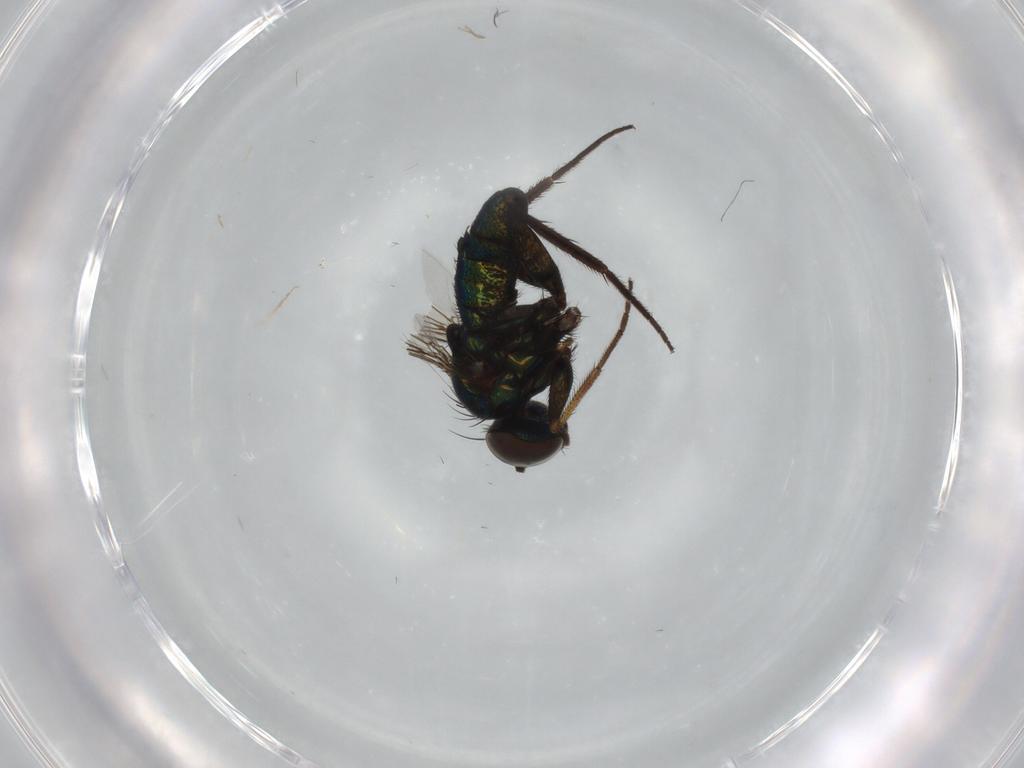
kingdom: Animalia
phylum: Arthropoda
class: Insecta
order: Diptera
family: Dolichopodidae
